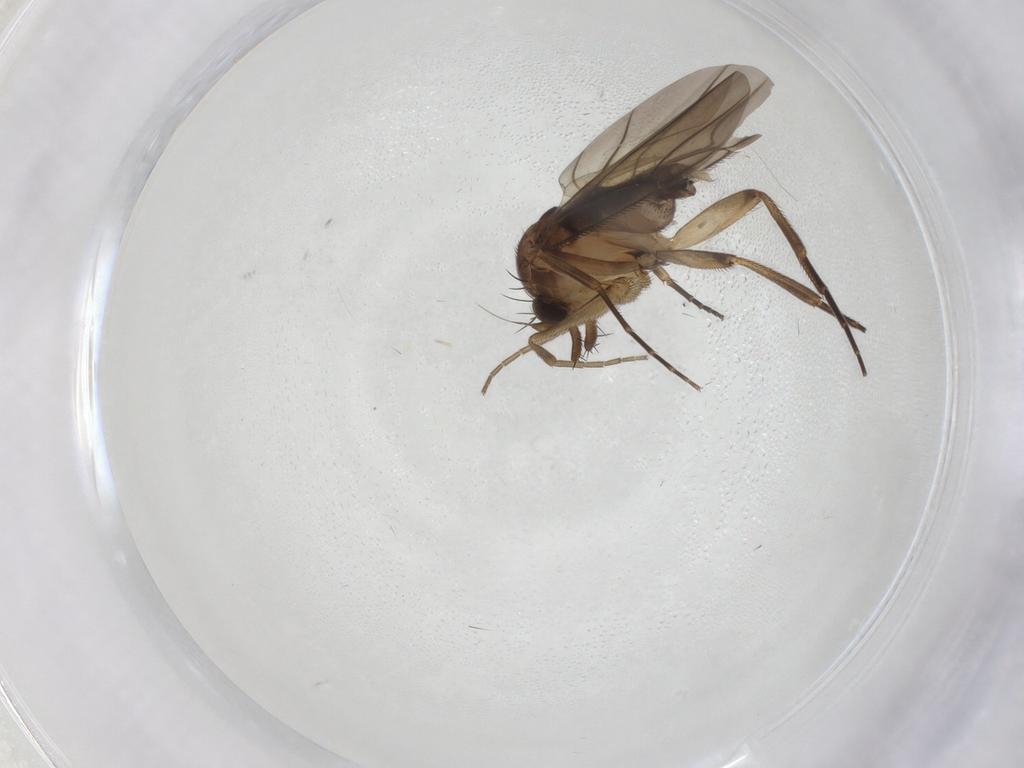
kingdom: Animalia
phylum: Arthropoda
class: Insecta
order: Diptera
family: Phoridae
